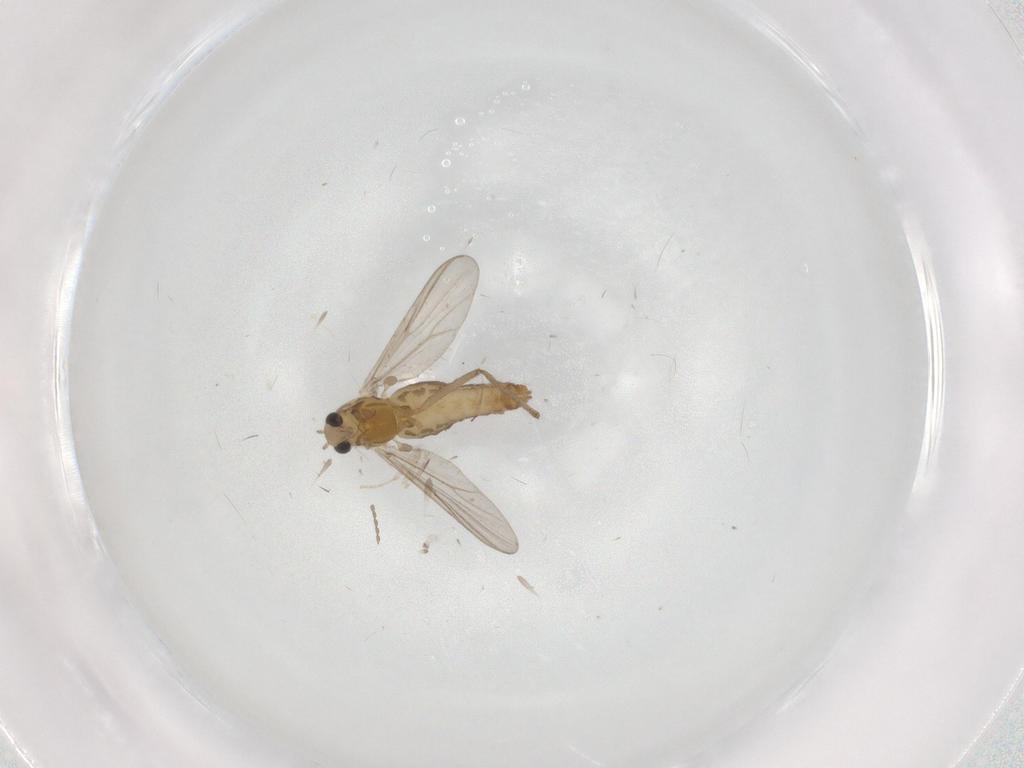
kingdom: Animalia
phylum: Arthropoda
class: Insecta
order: Diptera
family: Chironomidae
